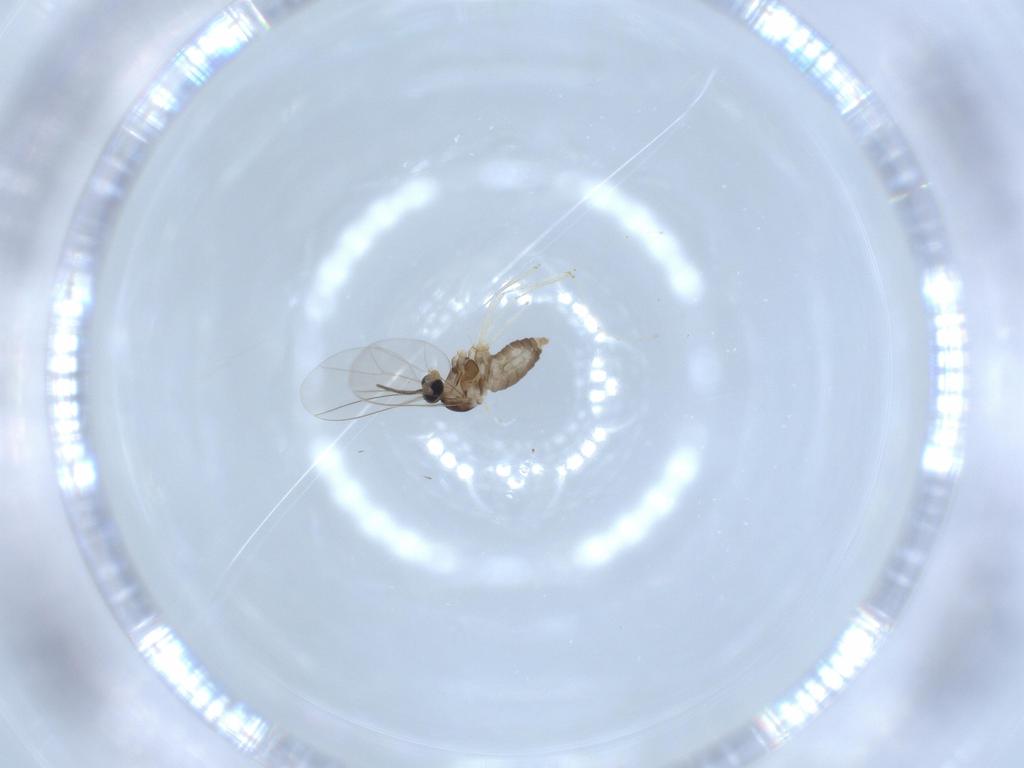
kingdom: Animalia
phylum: Arthropoda
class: Insecta
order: Diptera
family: Cecidomyiidae
